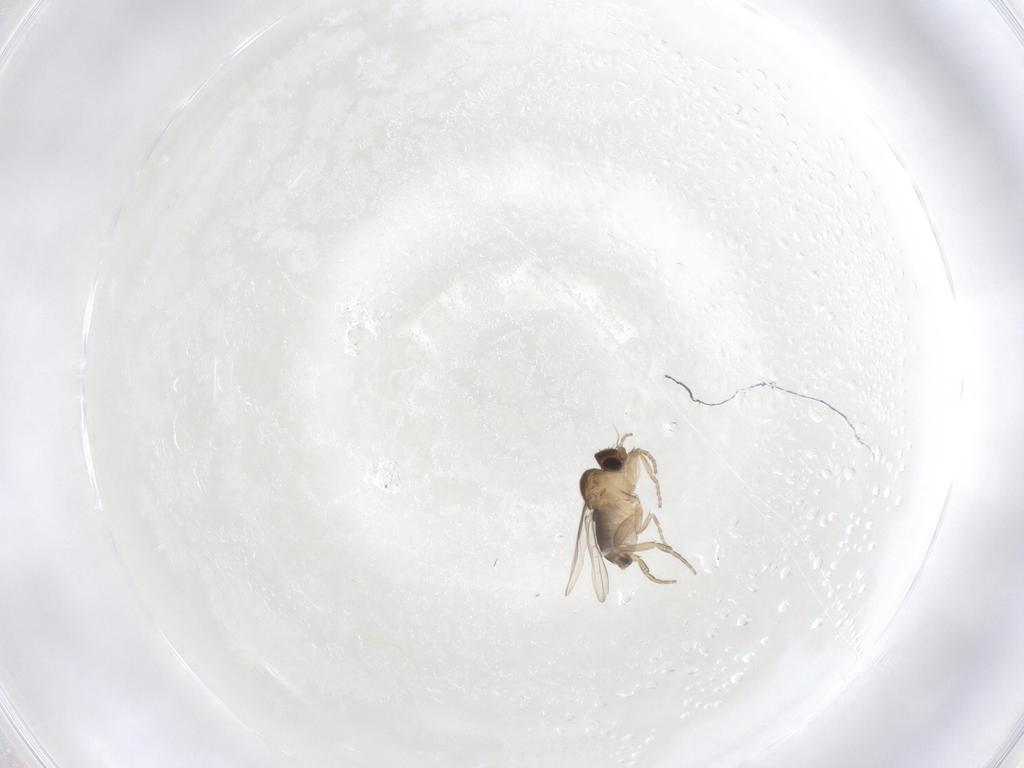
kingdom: Animalia
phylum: Arthropoda
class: Insecta
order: Diptera
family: Phoridae
